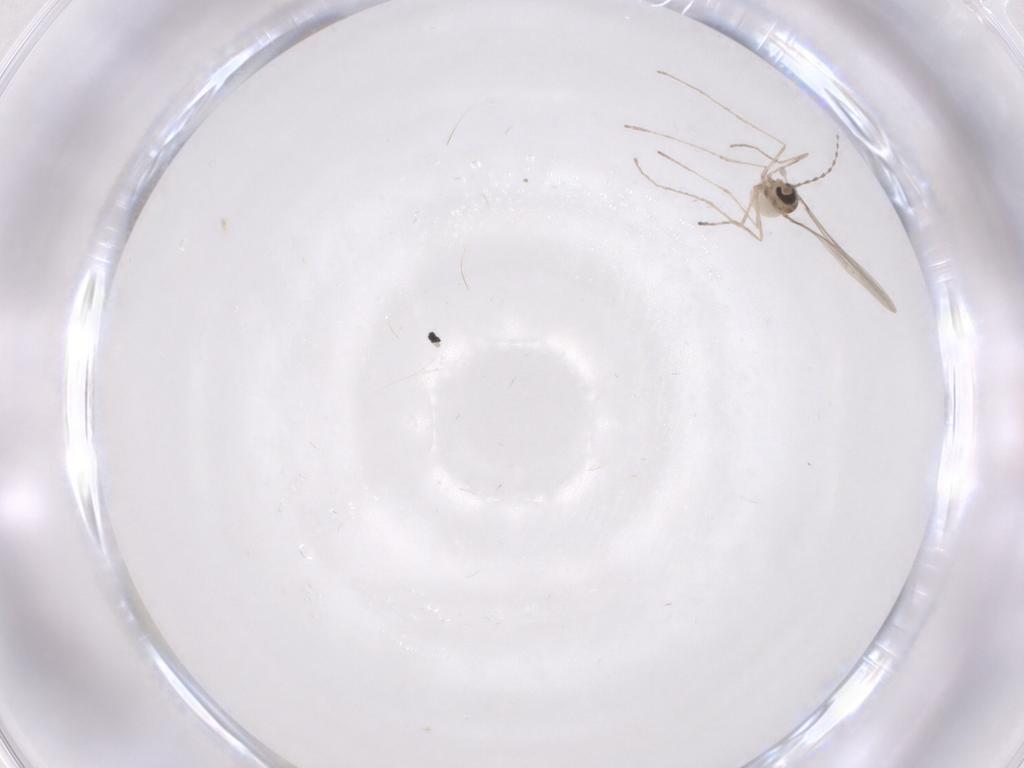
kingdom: Animalia
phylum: Arthropoda
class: Insecta
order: Diptera
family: Cecidomyiidae
